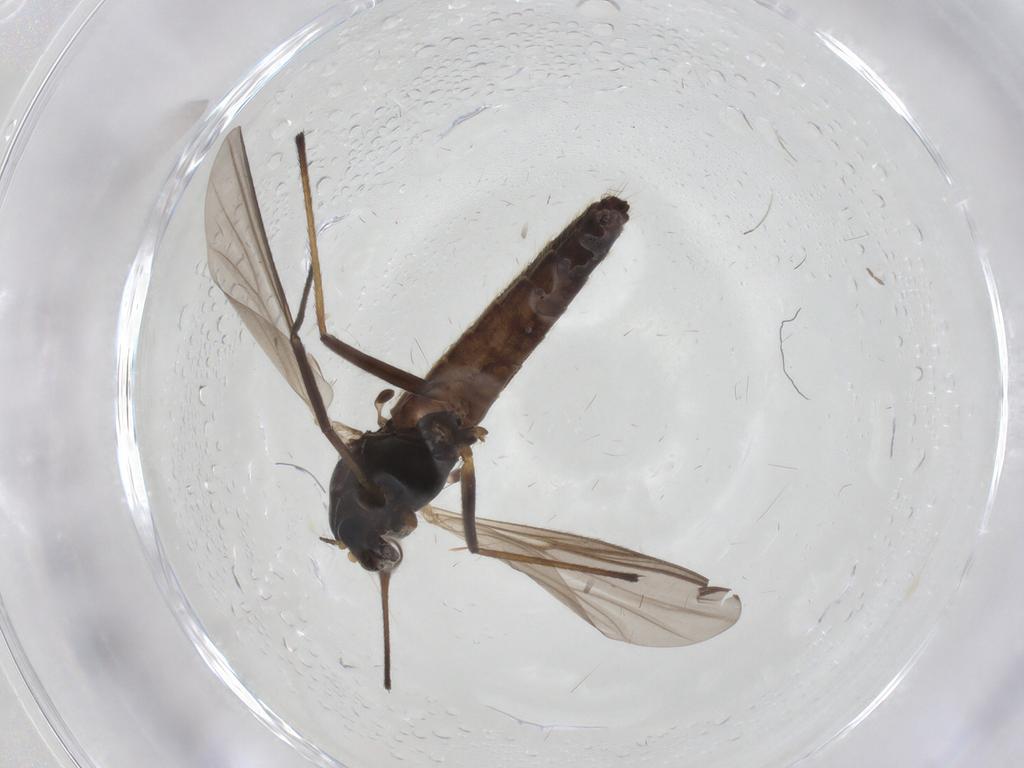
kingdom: Animalia
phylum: Arthropoda
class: Insecta
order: Diptera
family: Chironomidae
